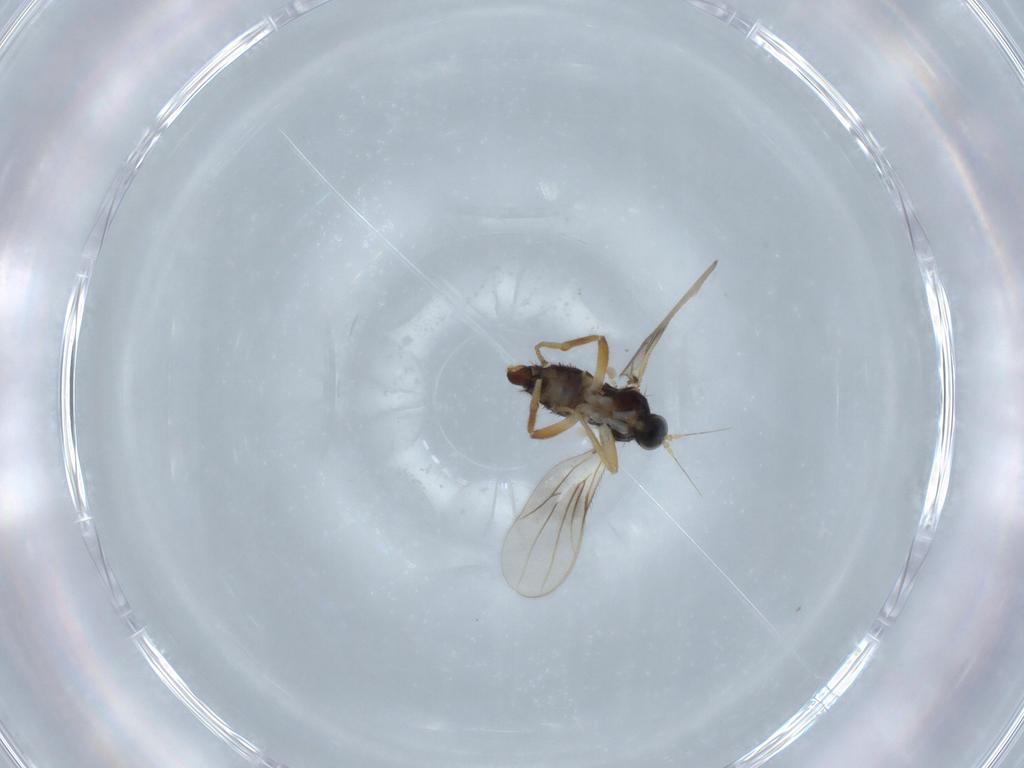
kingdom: Animalia
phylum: Arthropoda
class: Insecta
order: Diptera
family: Hybotidae
